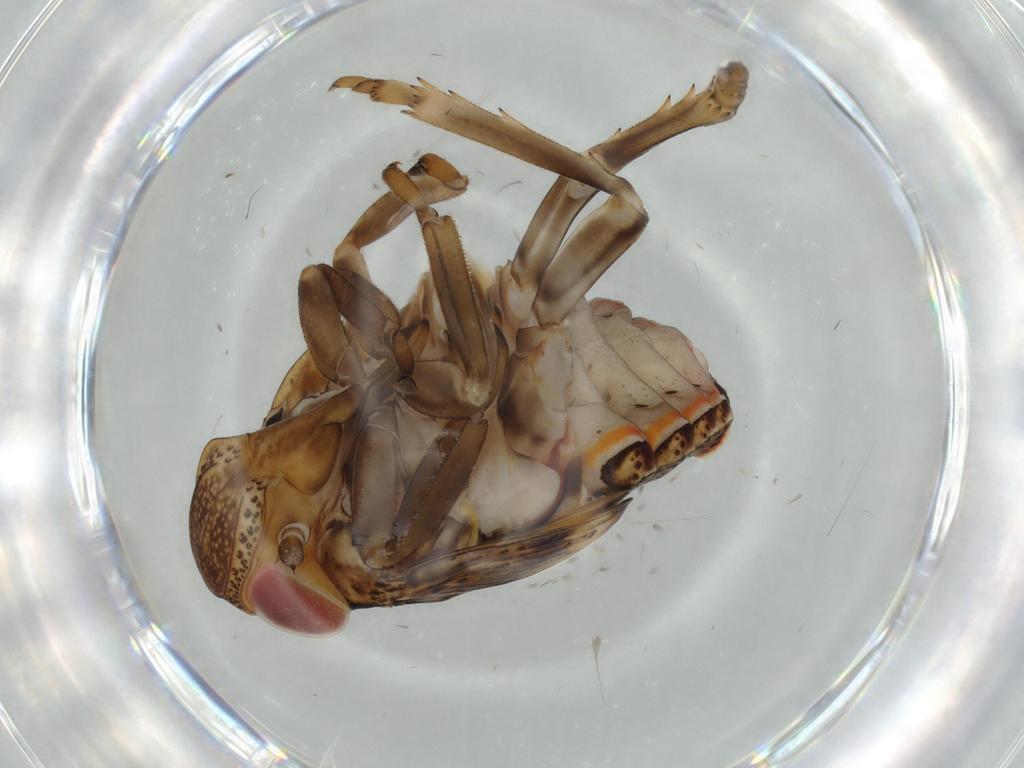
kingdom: Animalia
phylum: Arthropoda
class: Insecta
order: Hemiptera
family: Issidae
